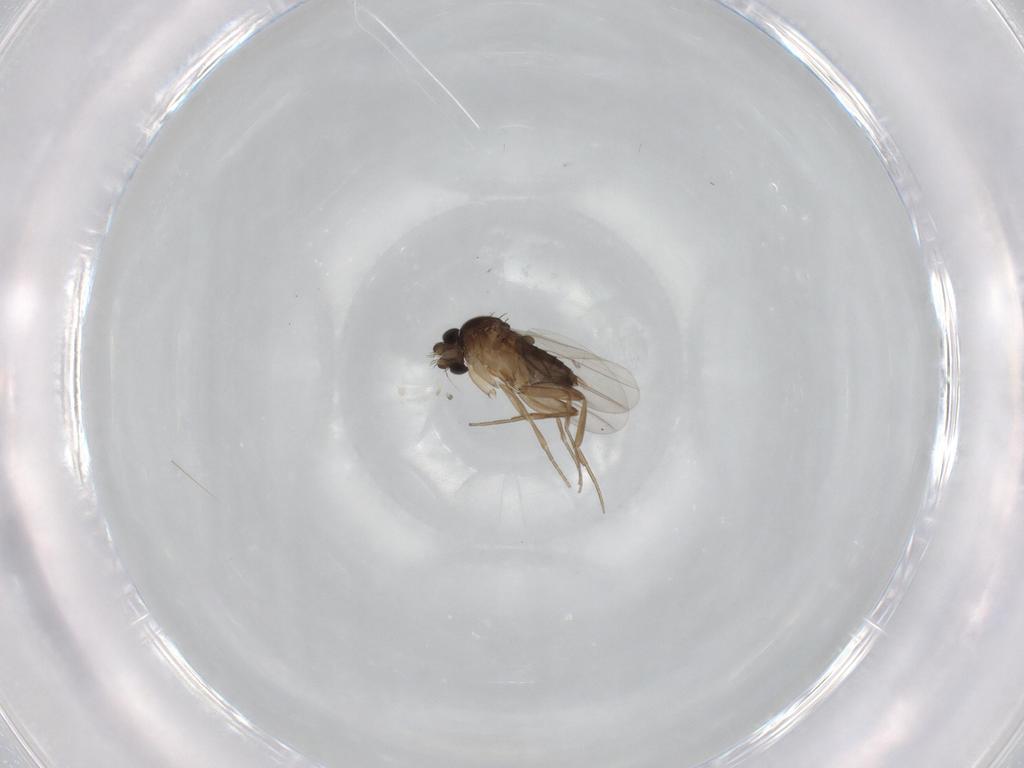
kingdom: Animalia
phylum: Arthropoda
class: Insecta
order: Diptera
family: Phoridae
